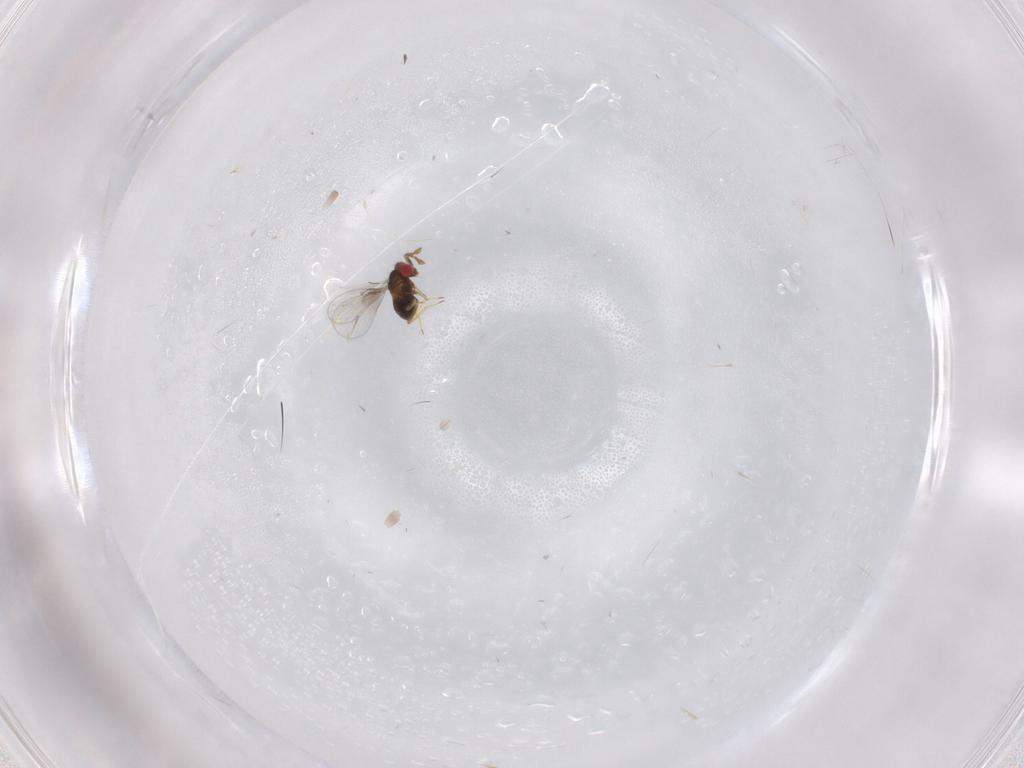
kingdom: Animalia
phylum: Arthropoda
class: Insecta
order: Hymenoptera
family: Trichogrammatidae
